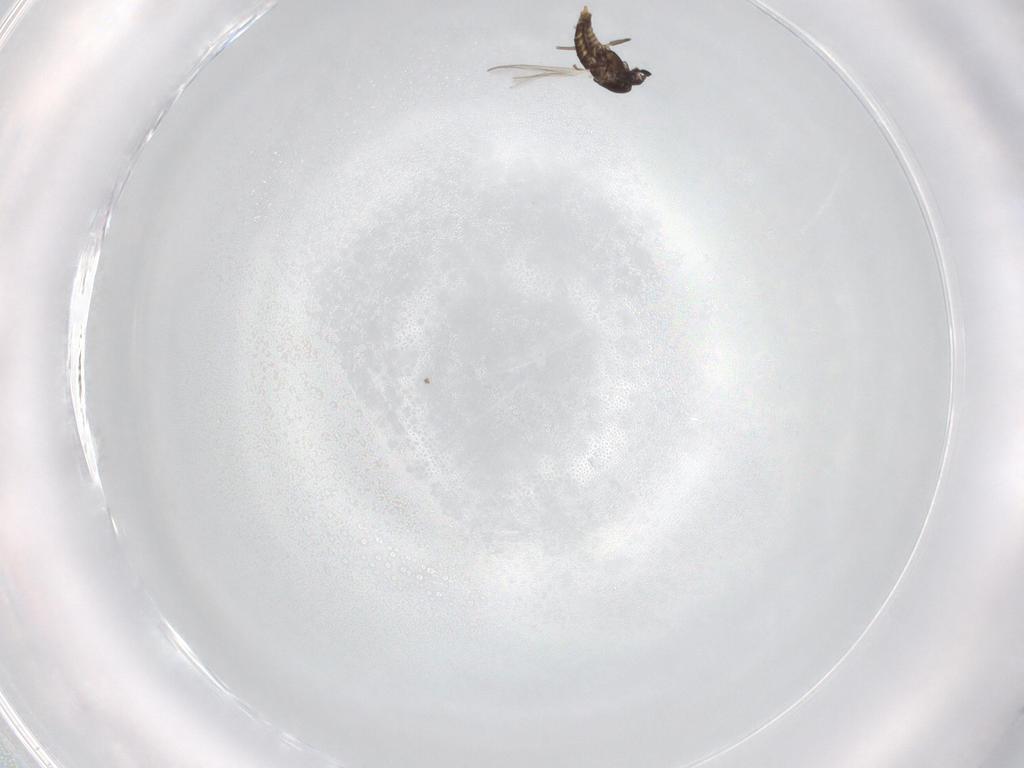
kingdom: Animalia
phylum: Arthropoda
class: Insecta
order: Diptera
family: Chironomidae
